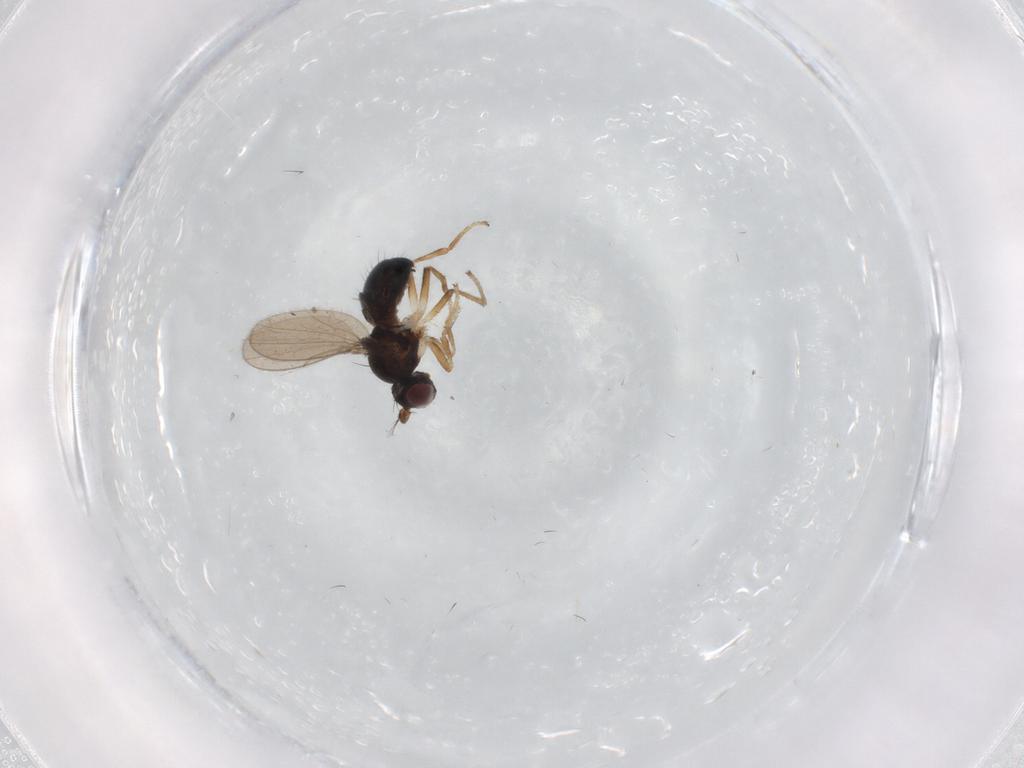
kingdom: Animalia
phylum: Arthropoda
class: Insecta
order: Diptera
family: Ephydridae
